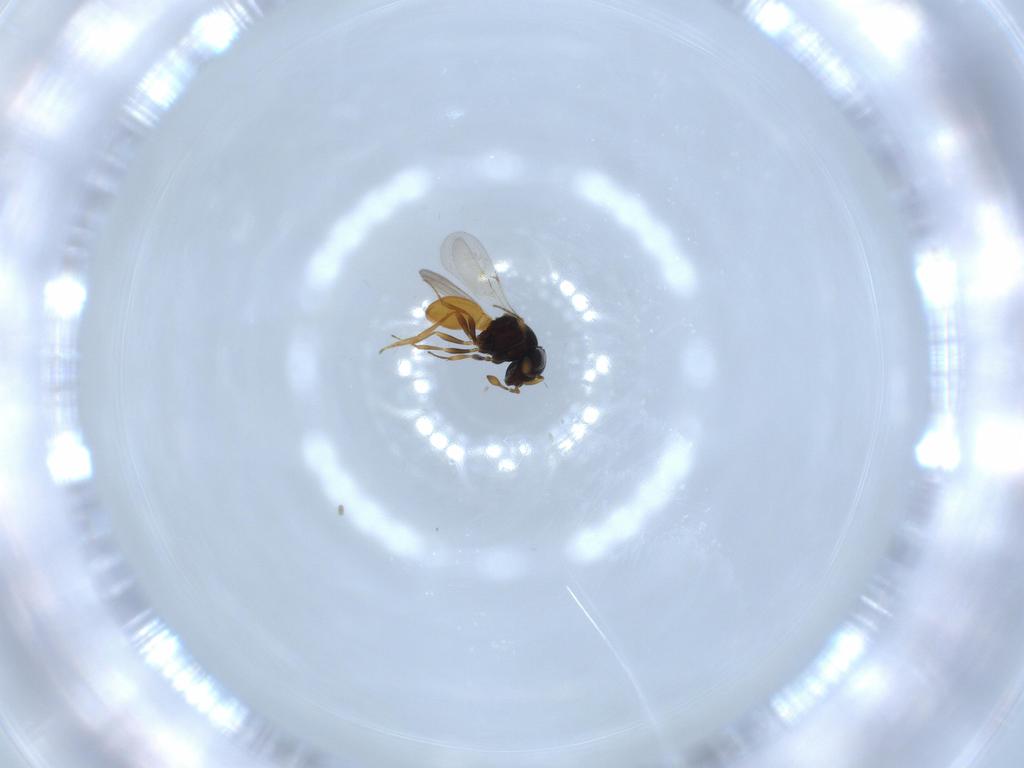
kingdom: Animalia
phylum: Arthropoda
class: Insecta
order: Hymenoptera
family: Scelionidae
